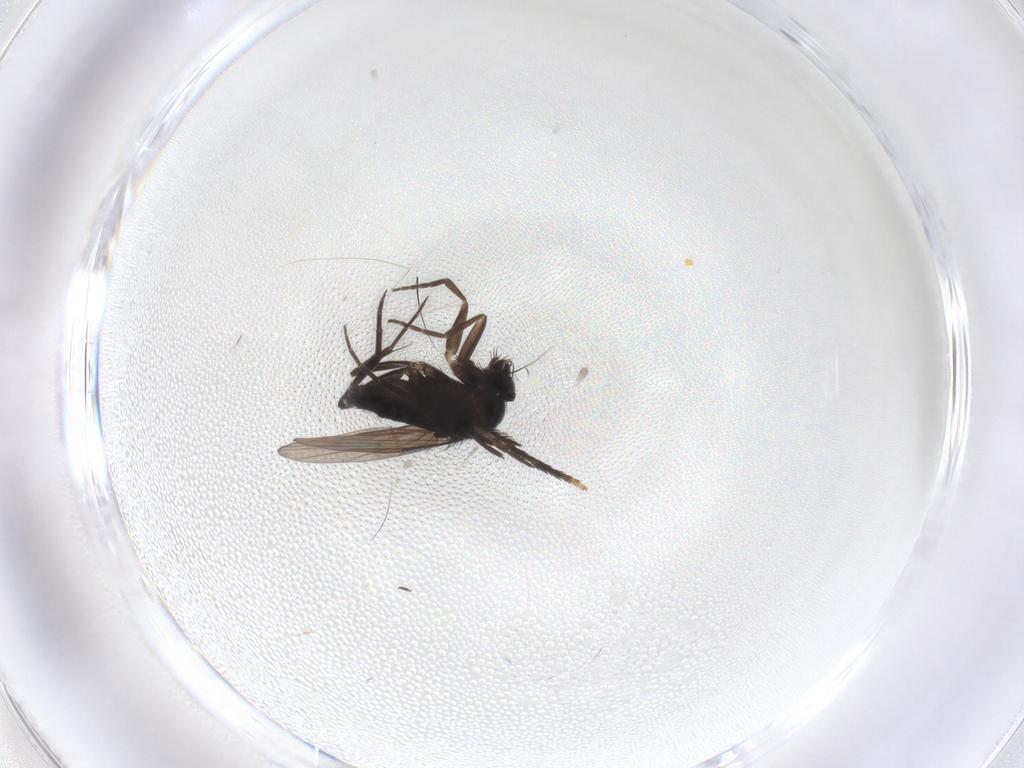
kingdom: Animalia
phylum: Arthropoda
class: Insecta
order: Diptera
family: Phoridae
